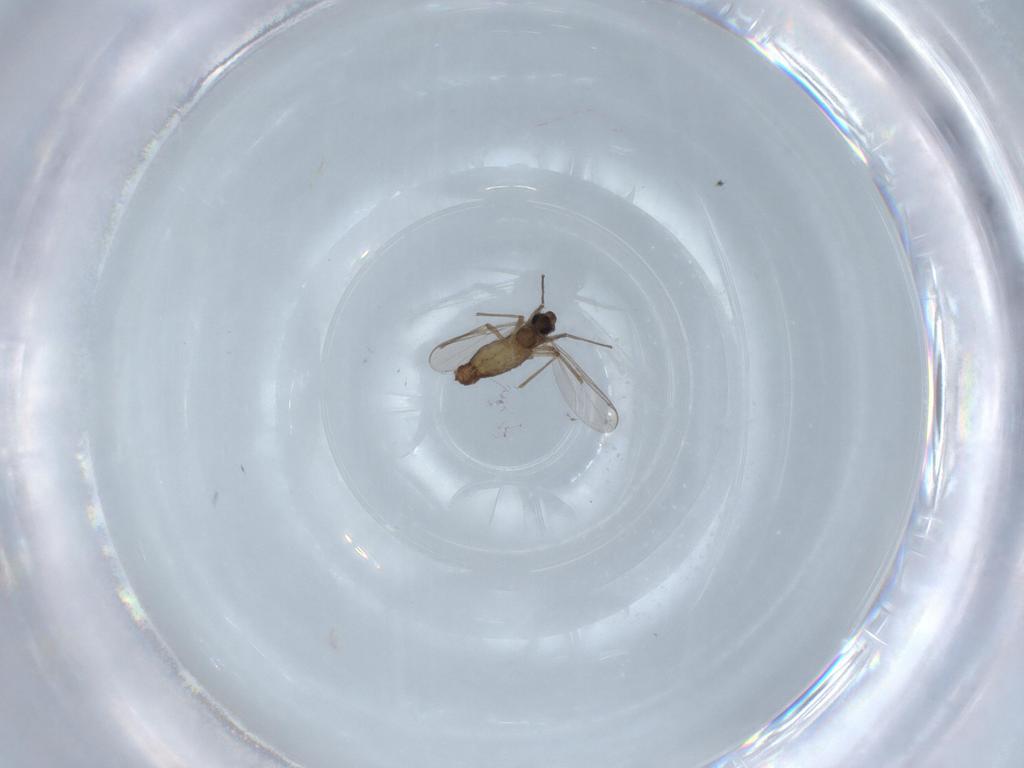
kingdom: Animalia
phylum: Arthropoda
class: Insecta
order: Diptera
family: Chironomidae
